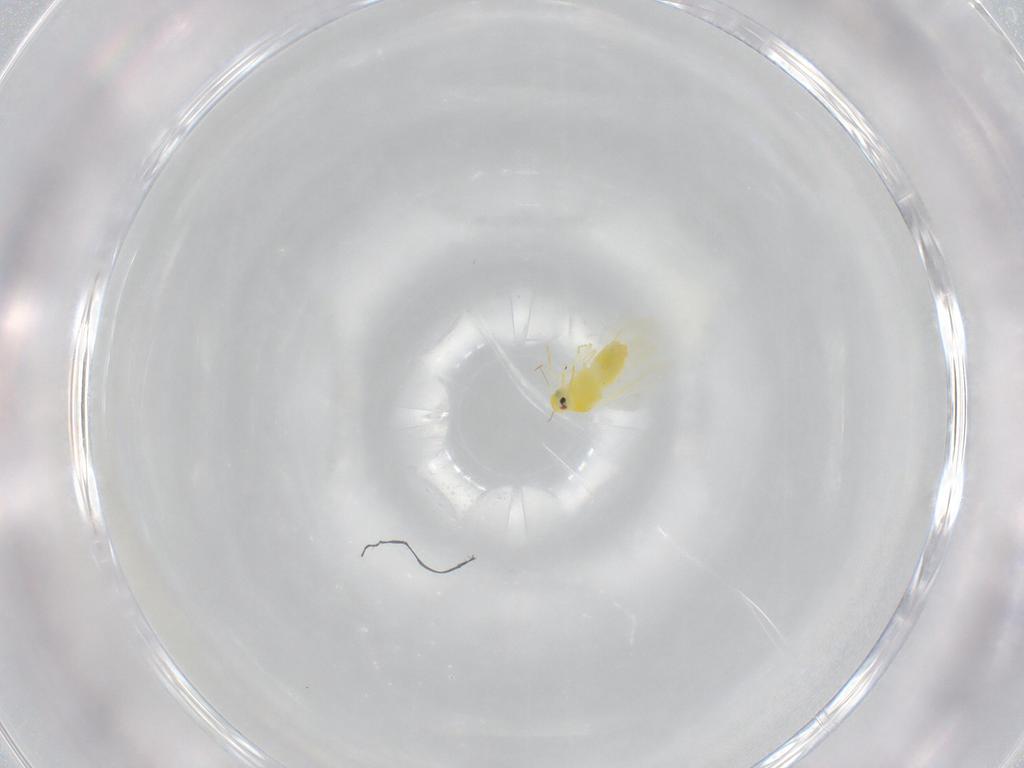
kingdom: Animalia
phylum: Arthropoda
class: Insecta
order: Hemiptera
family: Aleyrodidae
